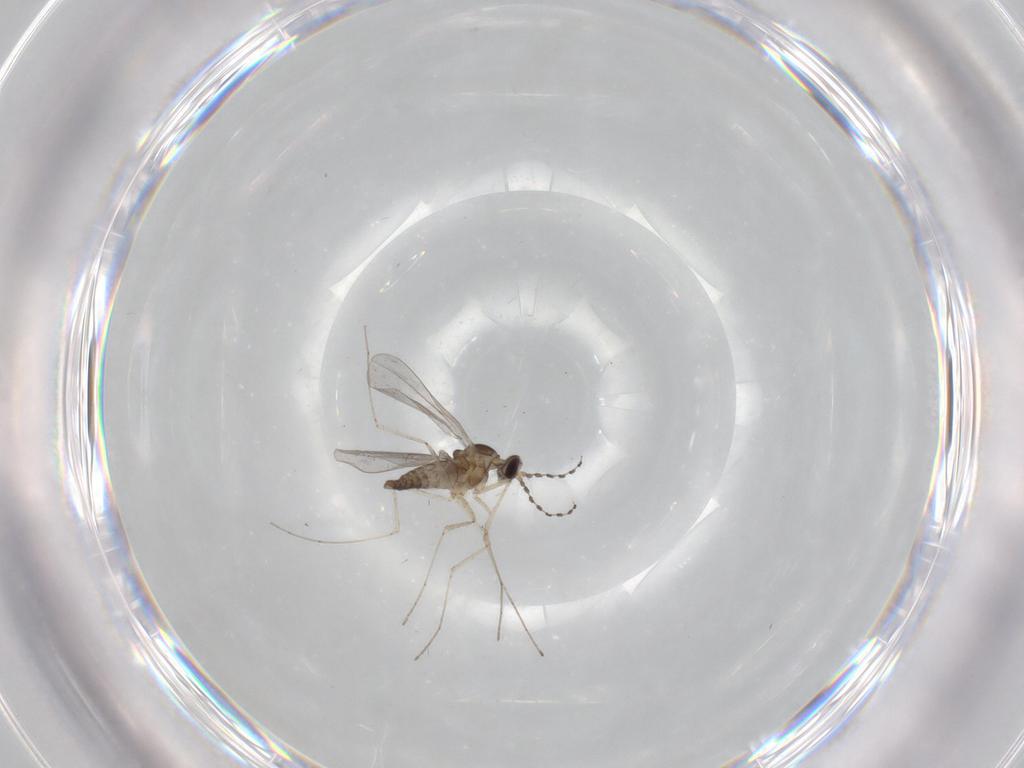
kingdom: Animalia
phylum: Arthropoda
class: Insecta
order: Diptera
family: Cecidomyiidae
